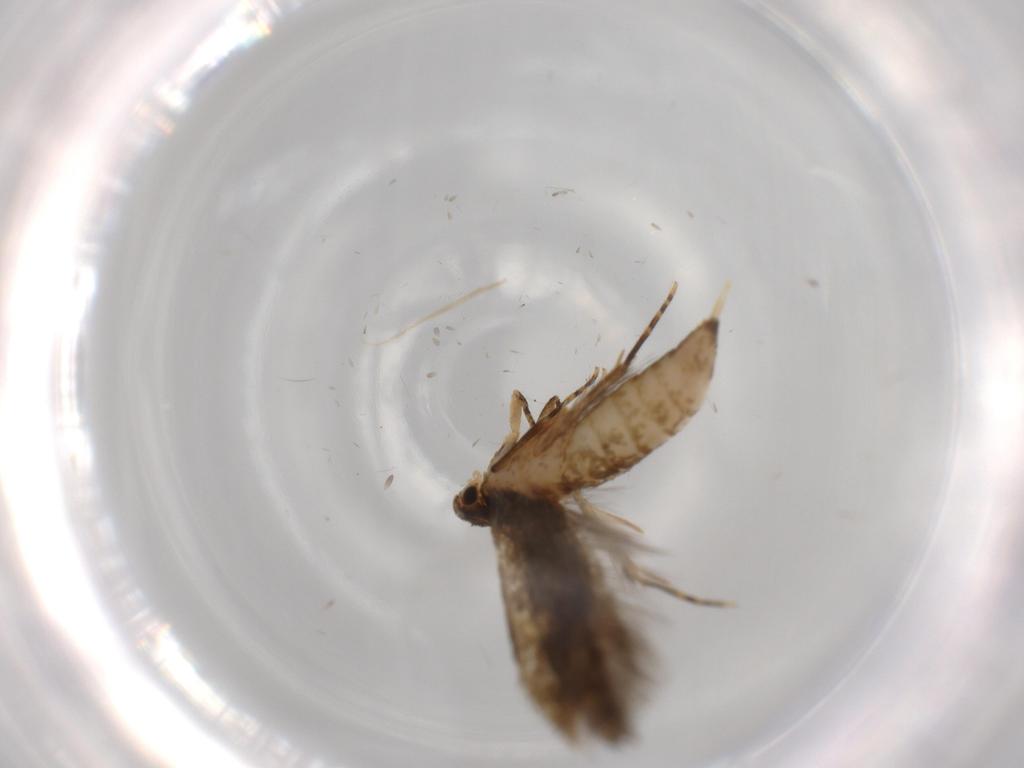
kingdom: Animalia
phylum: Arthropoda
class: Insecta
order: Lepidoptera
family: Tineidae
